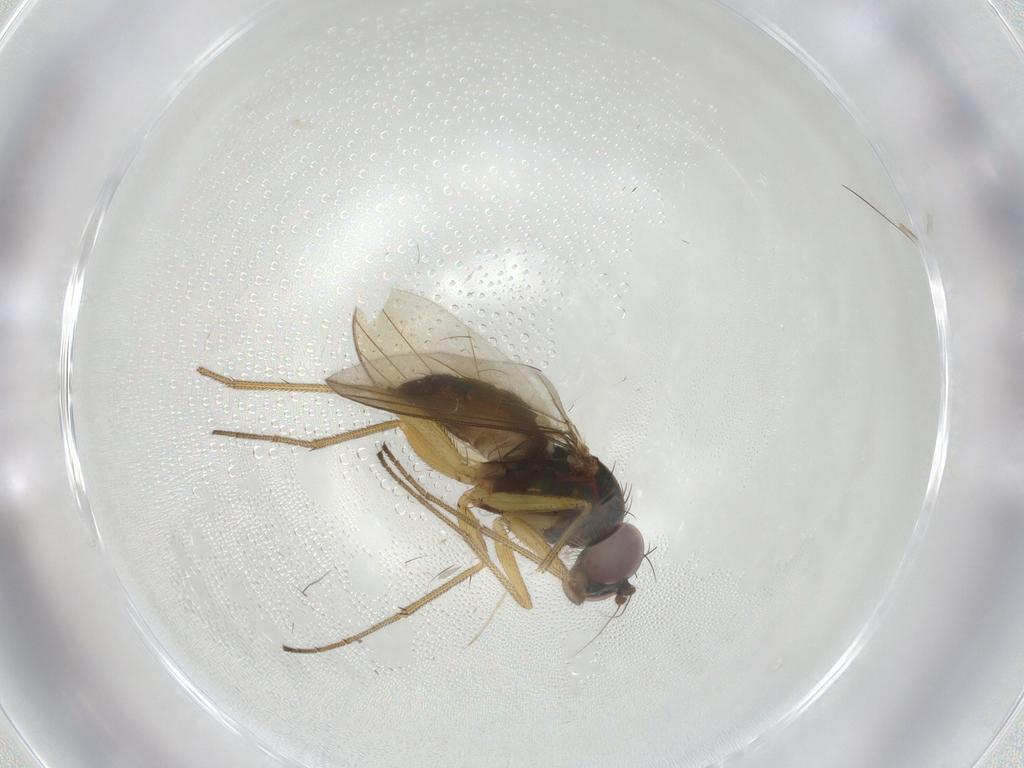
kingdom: Animalia
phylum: Arthropoda
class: Insecta
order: Diptera
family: Dolichopodidae
